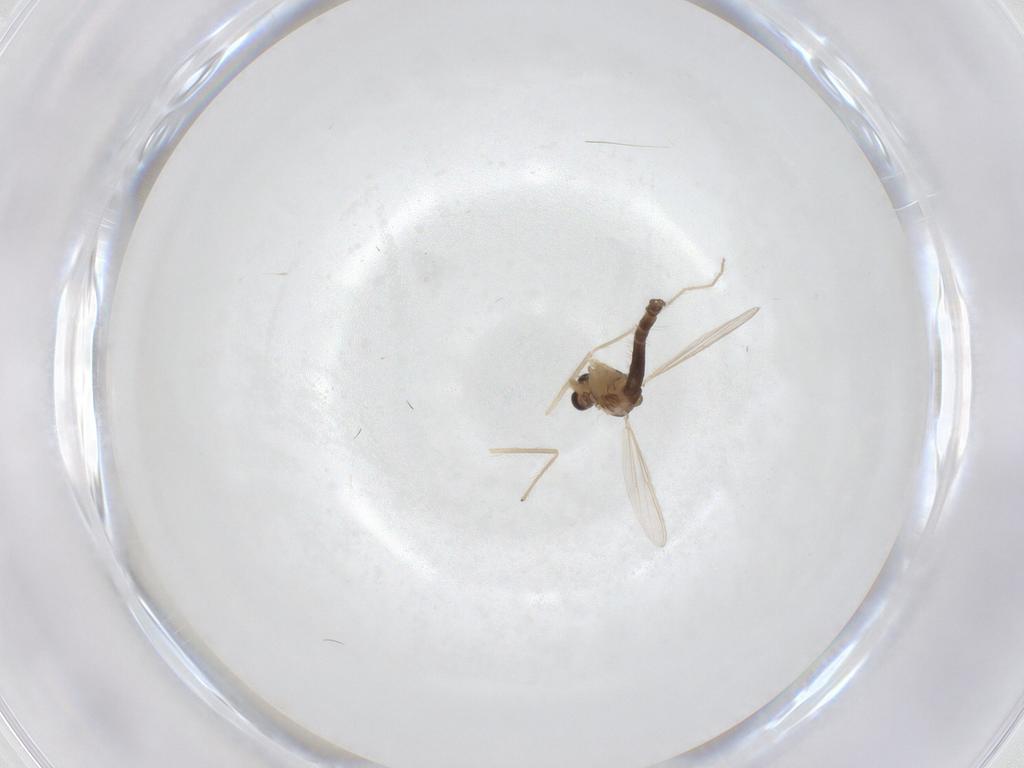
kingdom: Animalia
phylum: Arthropoda
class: Insecta
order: Diptera
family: Chironomidae
